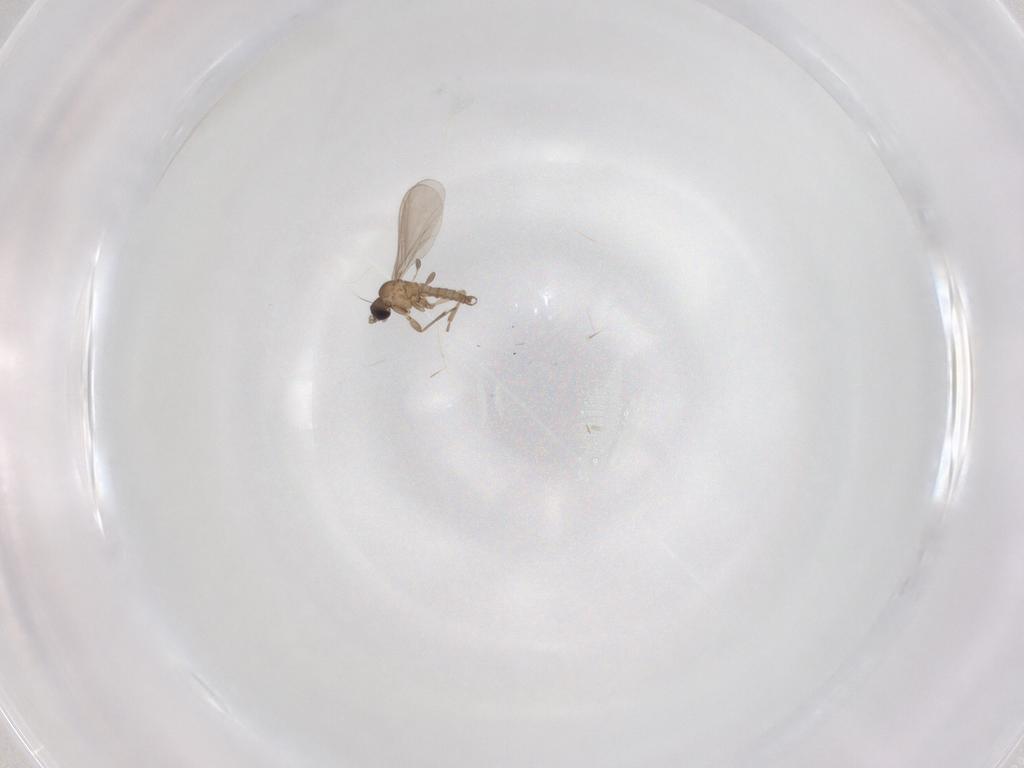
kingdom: Animalia
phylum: Arthropoda
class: Insecta
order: Diptera
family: Sciaridae
